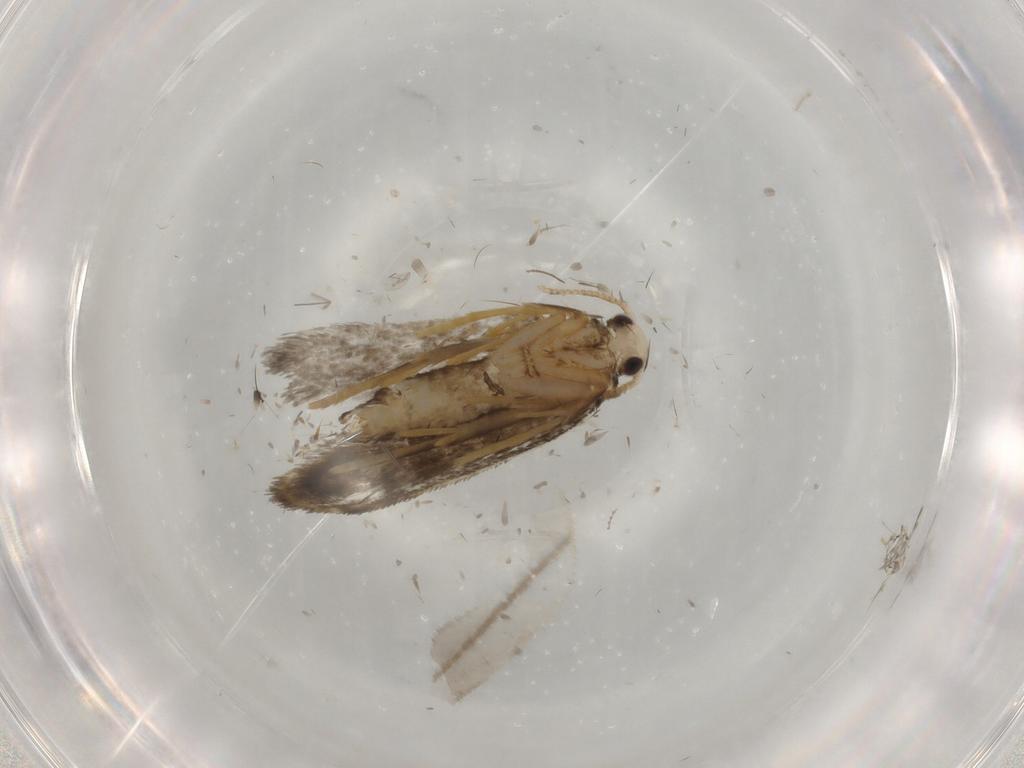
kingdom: Animalia
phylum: Arthropoda
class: Insecta
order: Lepidoptera
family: Psychidae
